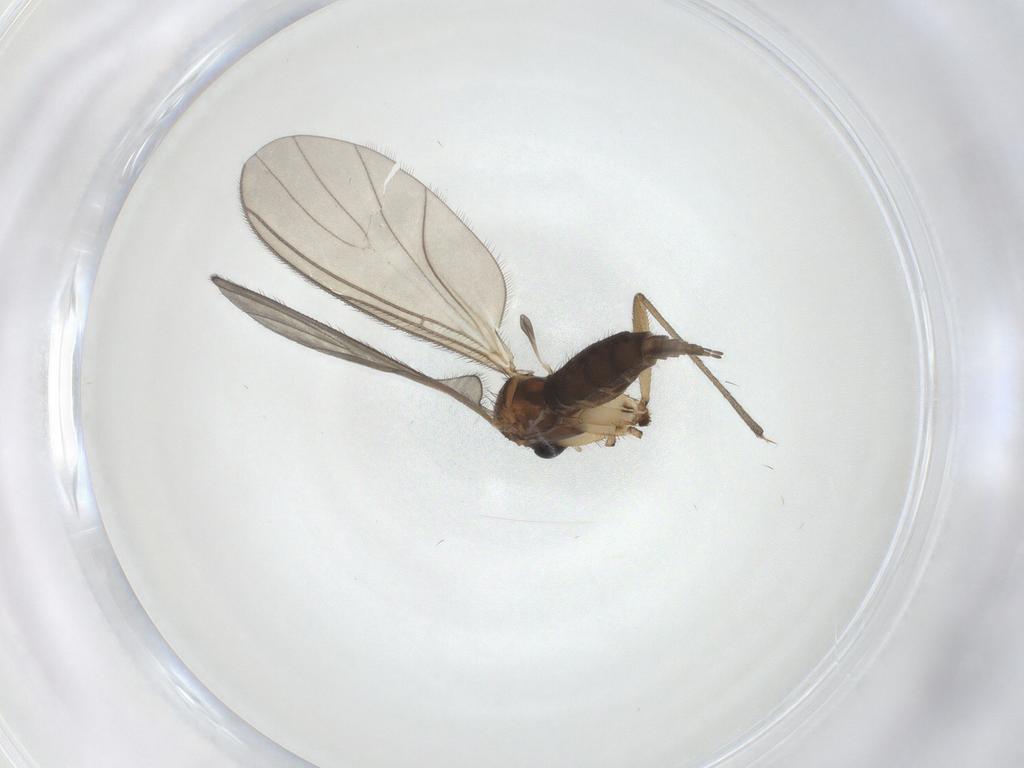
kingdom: Animalia
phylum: Arthropoda
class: Insecta
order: Diptera
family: Sciaridae
